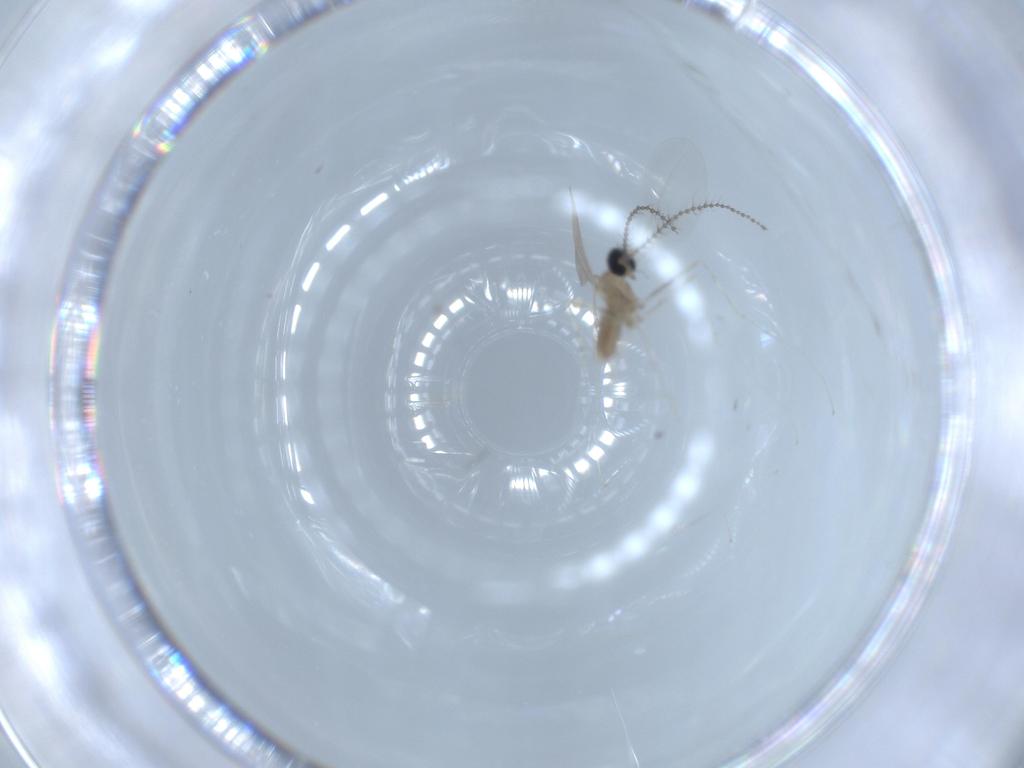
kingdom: Animalia
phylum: Arthropoda
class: Insecta
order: Diptera
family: Cecidomyiidae
